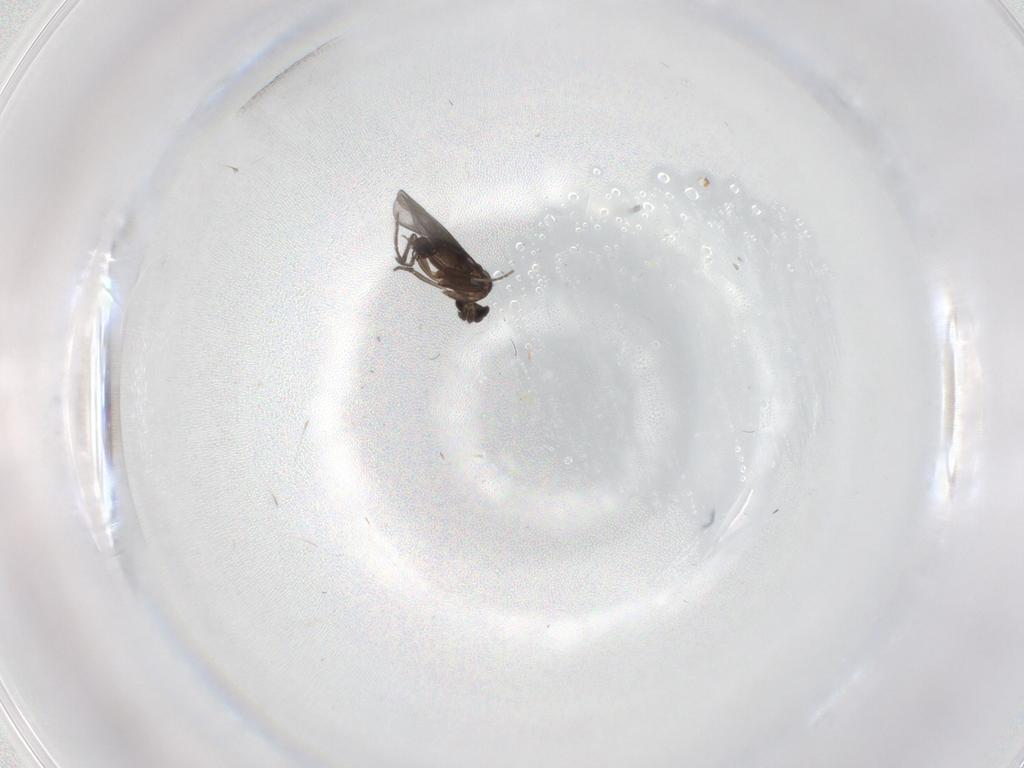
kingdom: Animalia
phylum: Arthropoda
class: Insecta
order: Diptera
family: Phoridae
